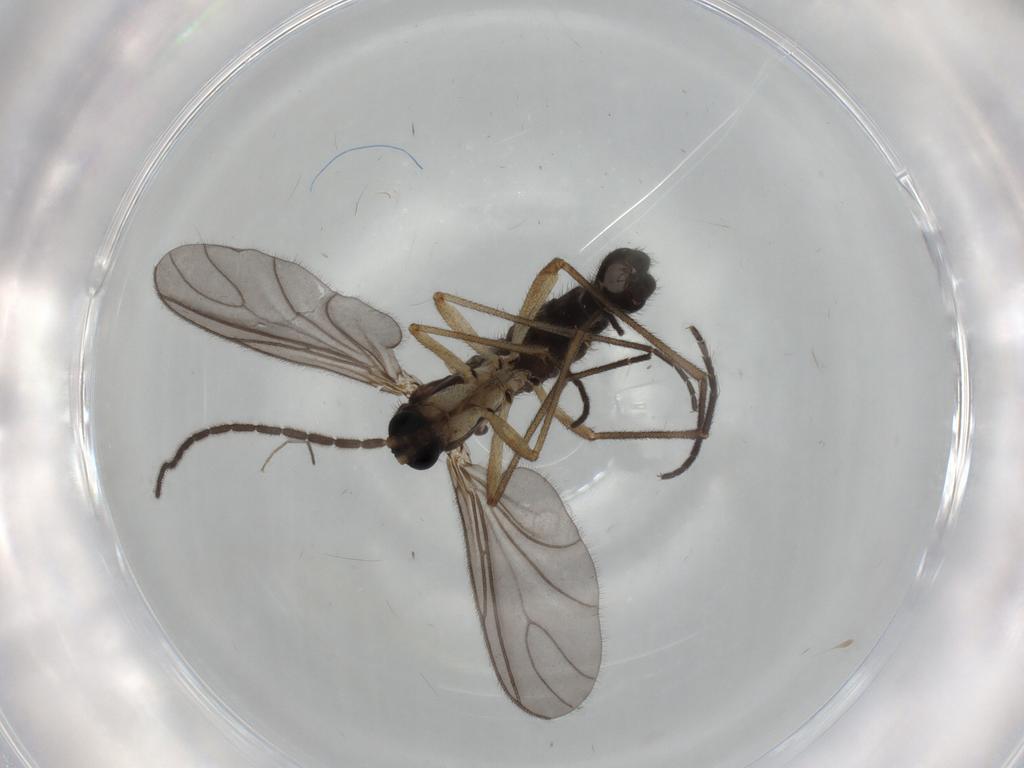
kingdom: Animalia
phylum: Arthropoda
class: Insecta
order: Diptera
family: Sciaridae
